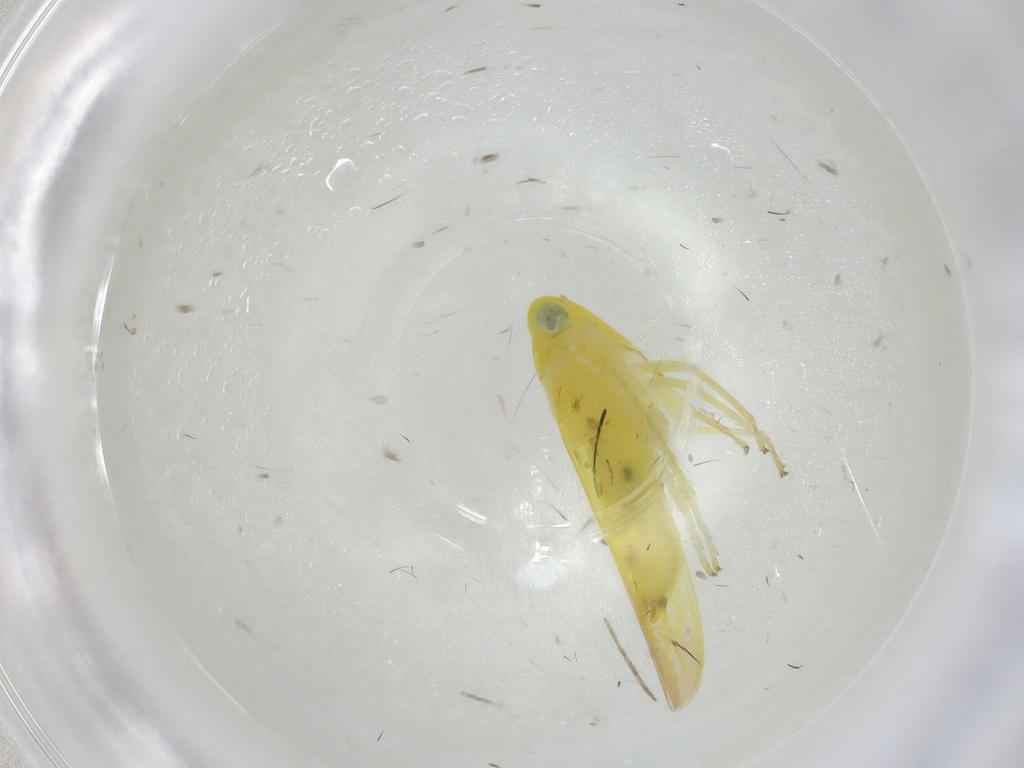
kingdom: Animalia
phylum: Arthropoda
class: Insecta
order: Hemiptera
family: Cicadellidae
